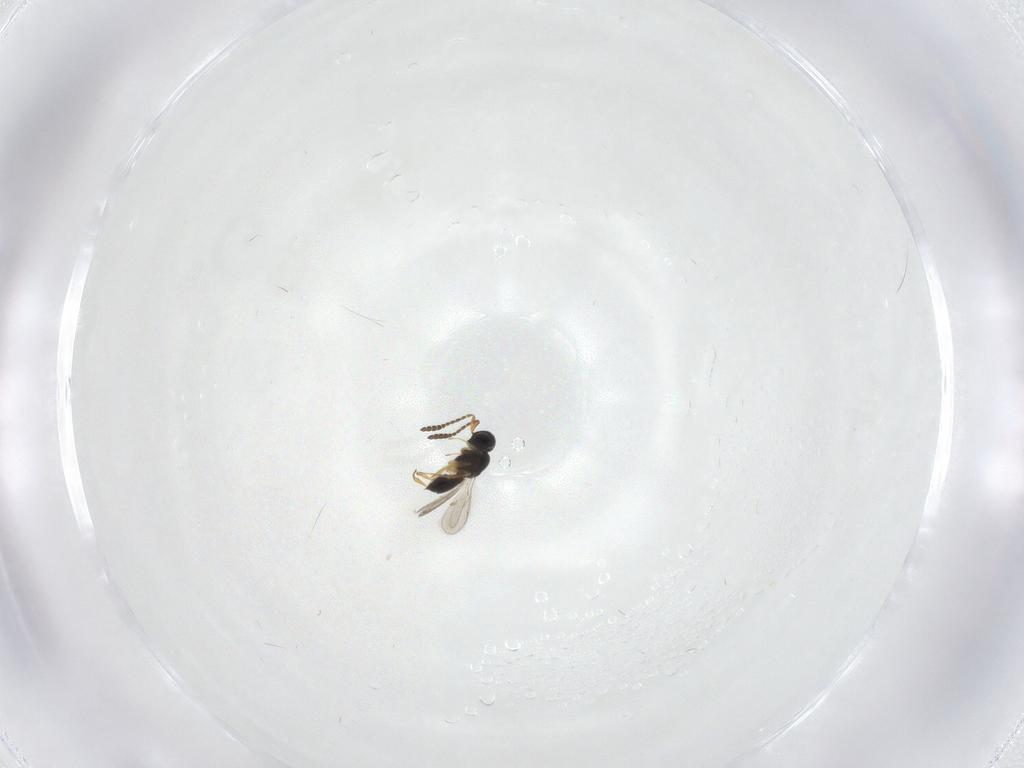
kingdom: Animalia
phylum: Arthropoda
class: Insecta
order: Hymenoptera
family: Scelionidae
